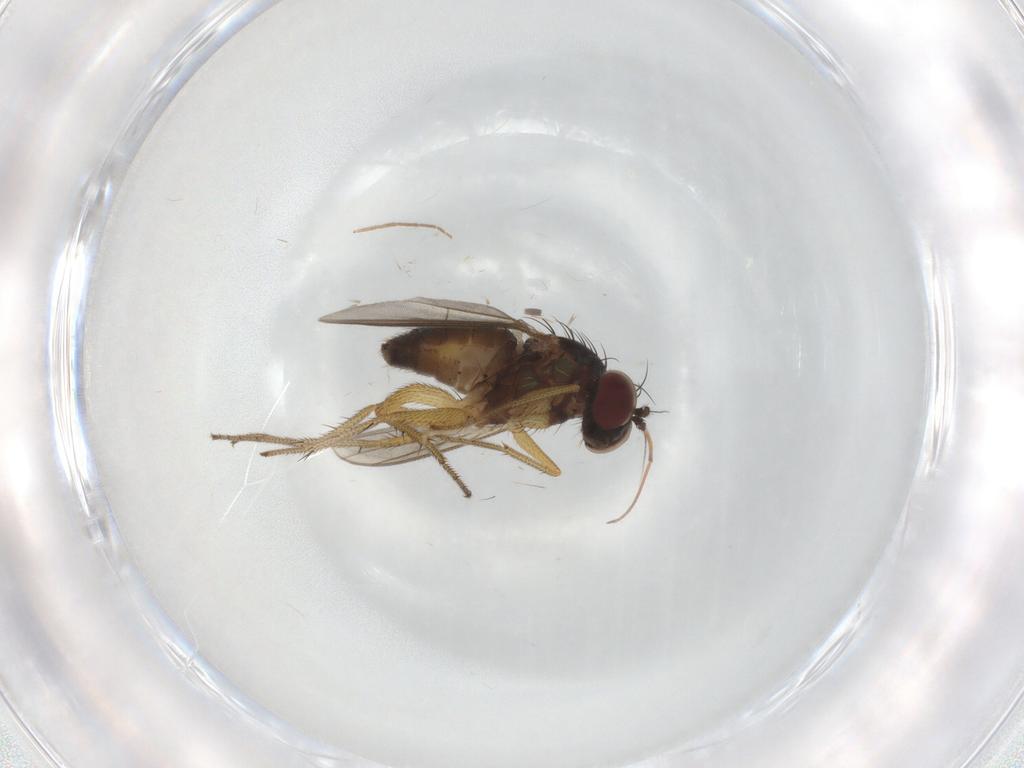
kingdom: Animalia
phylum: Arthropoda
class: Insecta
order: Diptera
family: Chironomidae
